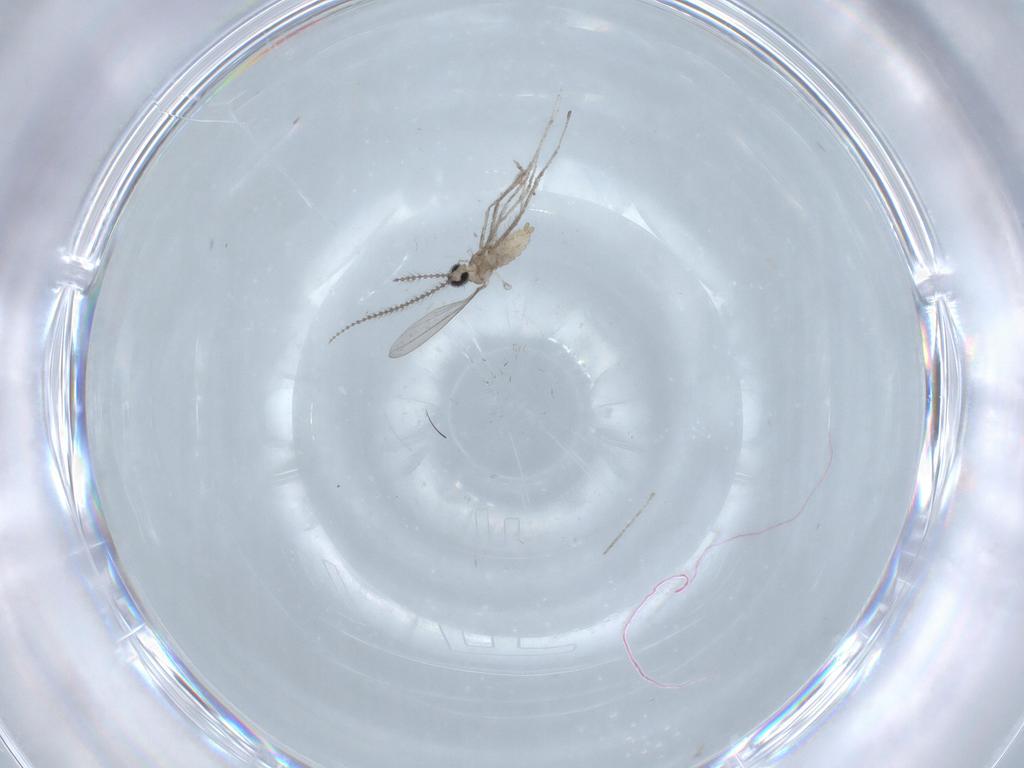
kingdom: Animalia
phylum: Arthropoda
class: Insecta
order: Diptera
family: Cecidomyiidae
